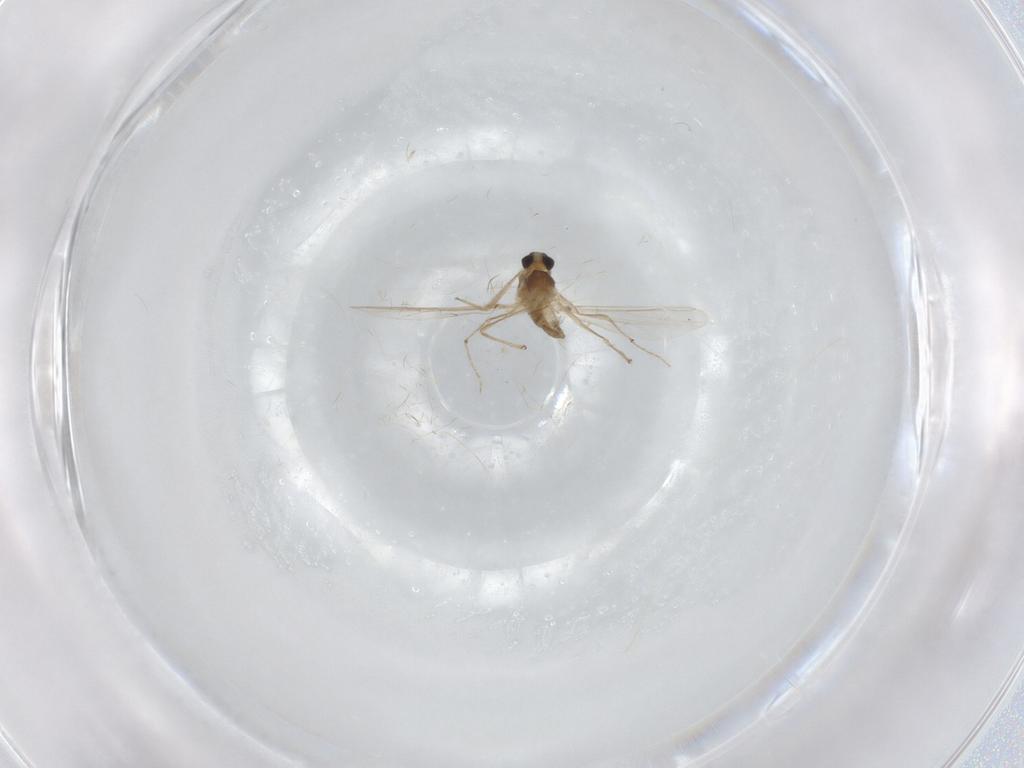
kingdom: Animalia
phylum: Arthropoda
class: Insecta
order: Diptera
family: Chironomidae
